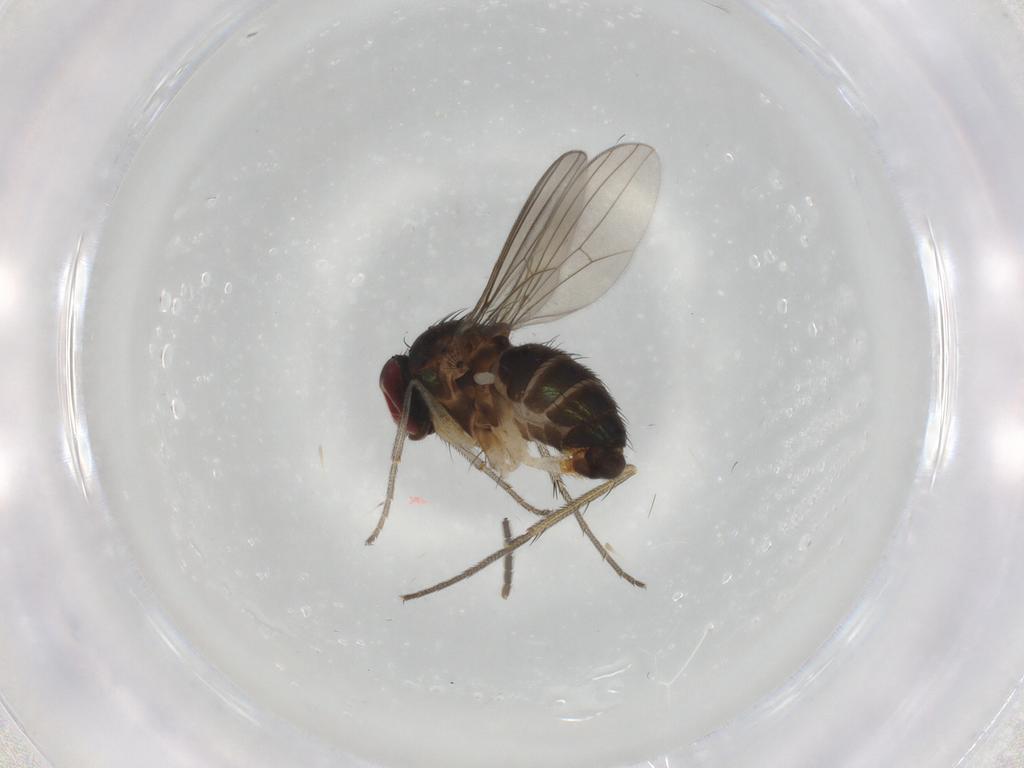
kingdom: Animalia
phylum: Arthropoda
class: Insecta
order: Diptera
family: Dolichopodidae
